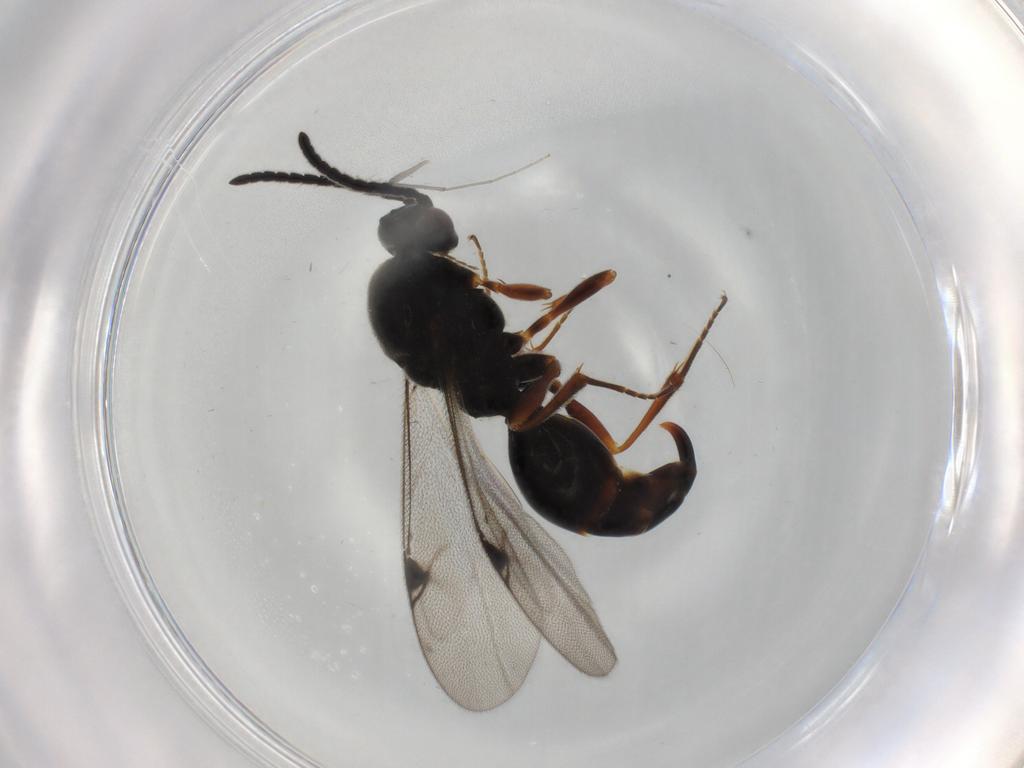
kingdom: Animalia
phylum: Arthropoda
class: Insecta
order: Hymenoptera
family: Proctotrupidae
